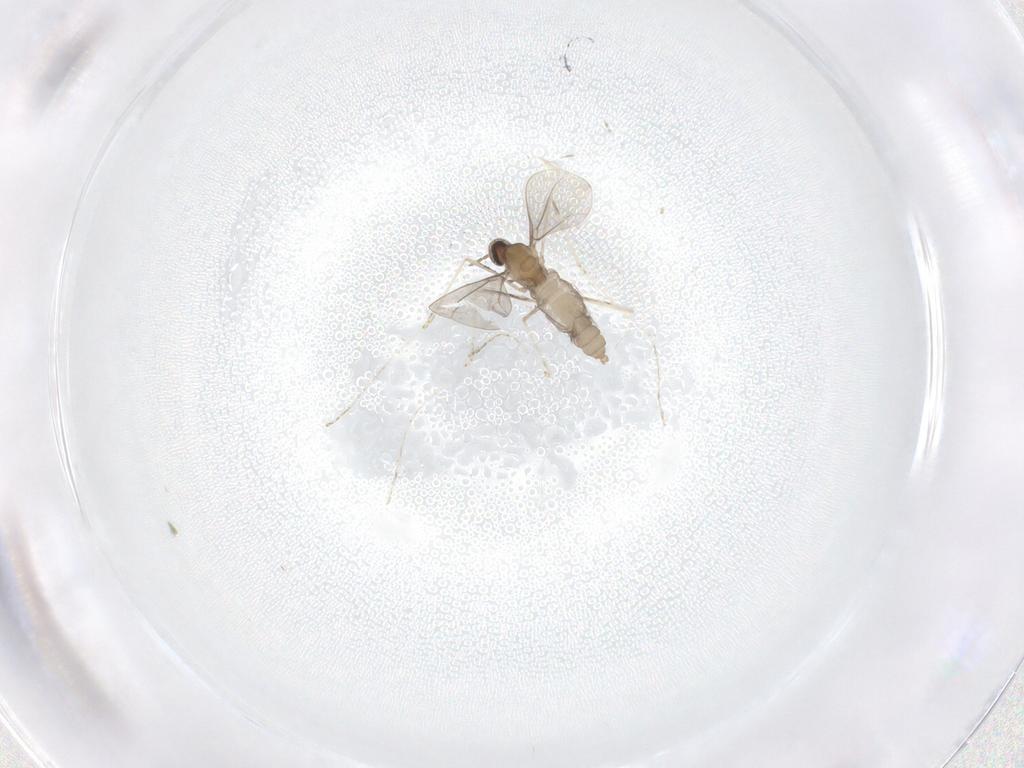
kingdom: Animalia
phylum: Arthropoda
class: Insecta
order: Diptera
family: Cecidomyiidae
